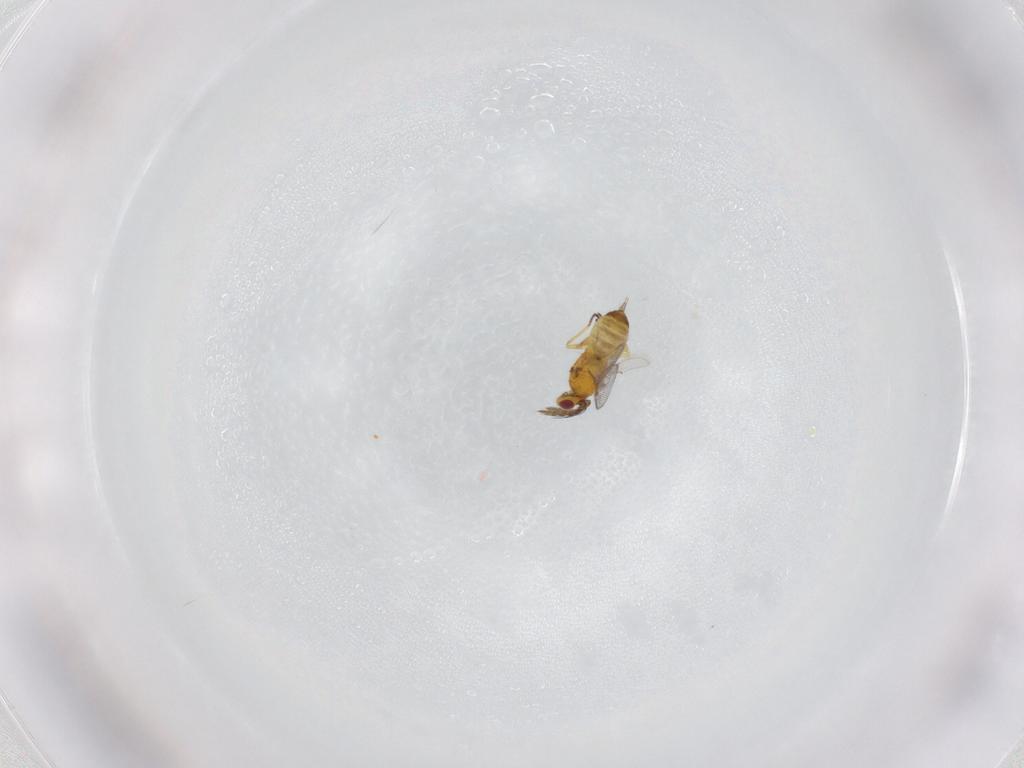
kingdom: Animalia
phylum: Arthropoda
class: Insecta
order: Hymenoptera
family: Eulophidae
